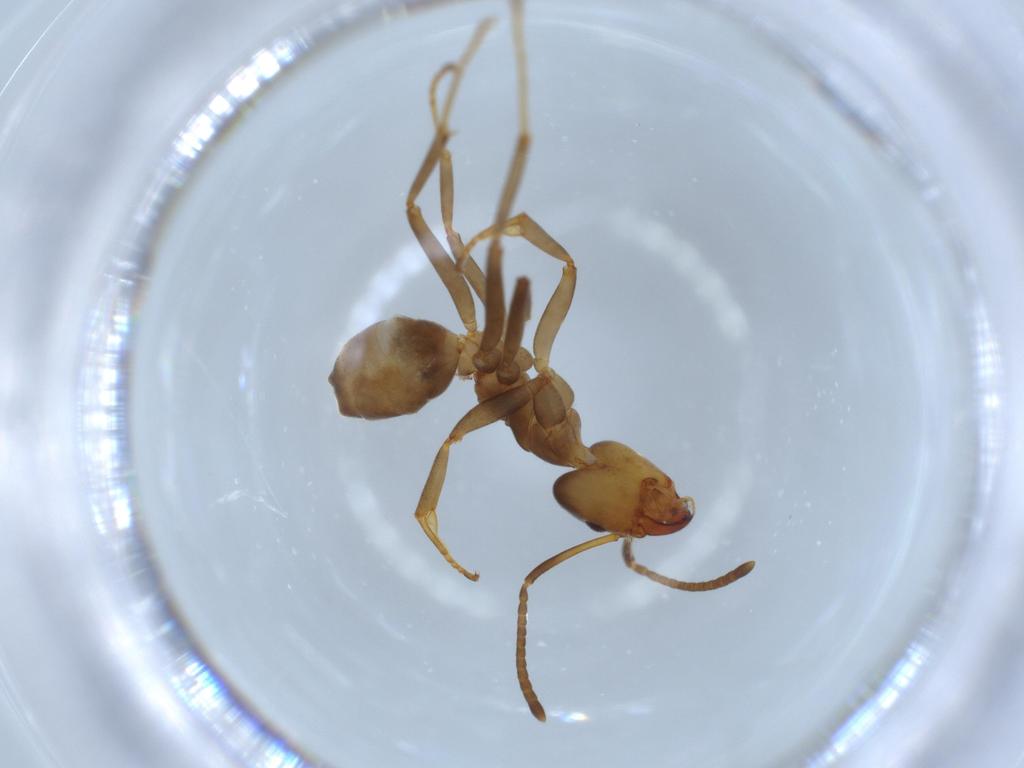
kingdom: Animalia
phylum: Arthropoda
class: Insecta
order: Hymenoptera
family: Formicidae
